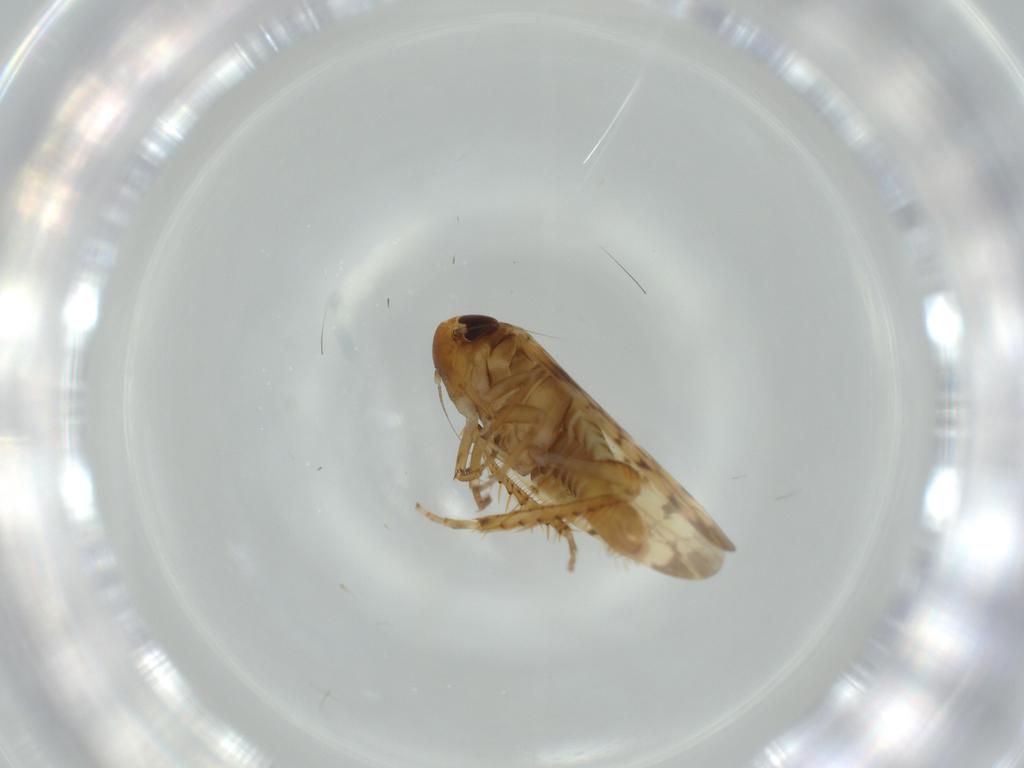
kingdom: Animalia
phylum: Arthropoda
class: Insecta
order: Hemiptera
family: Cicadellidae
